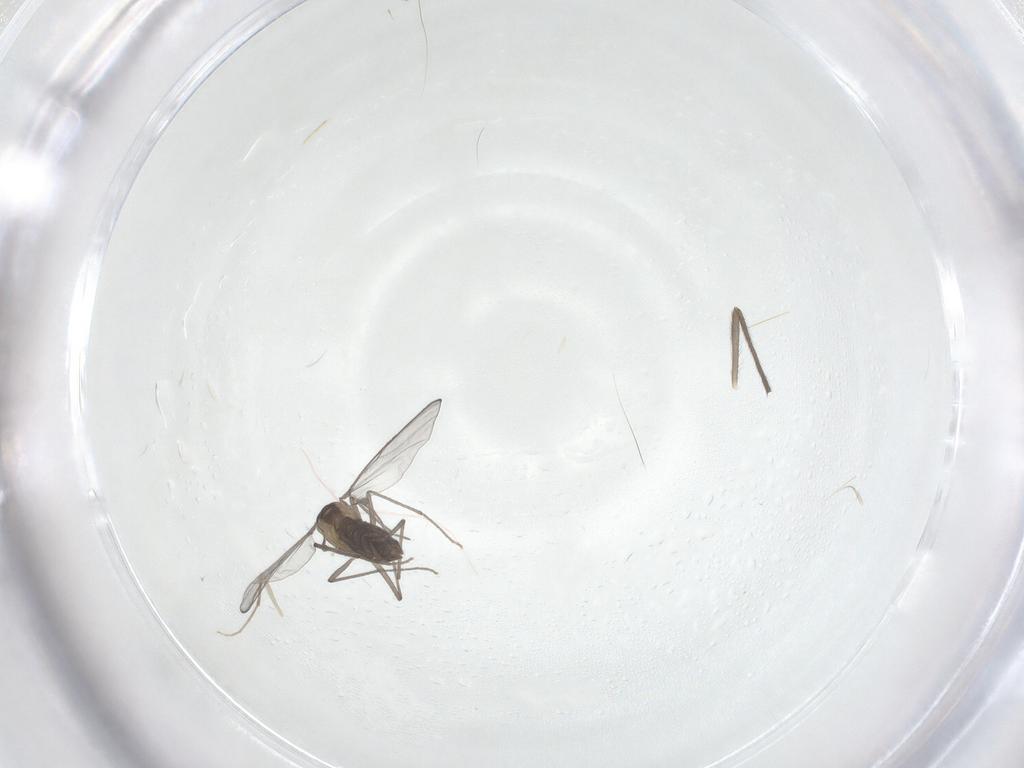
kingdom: Animalia
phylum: Arthropoda
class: Insecta
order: Diptera
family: Chironomidae
